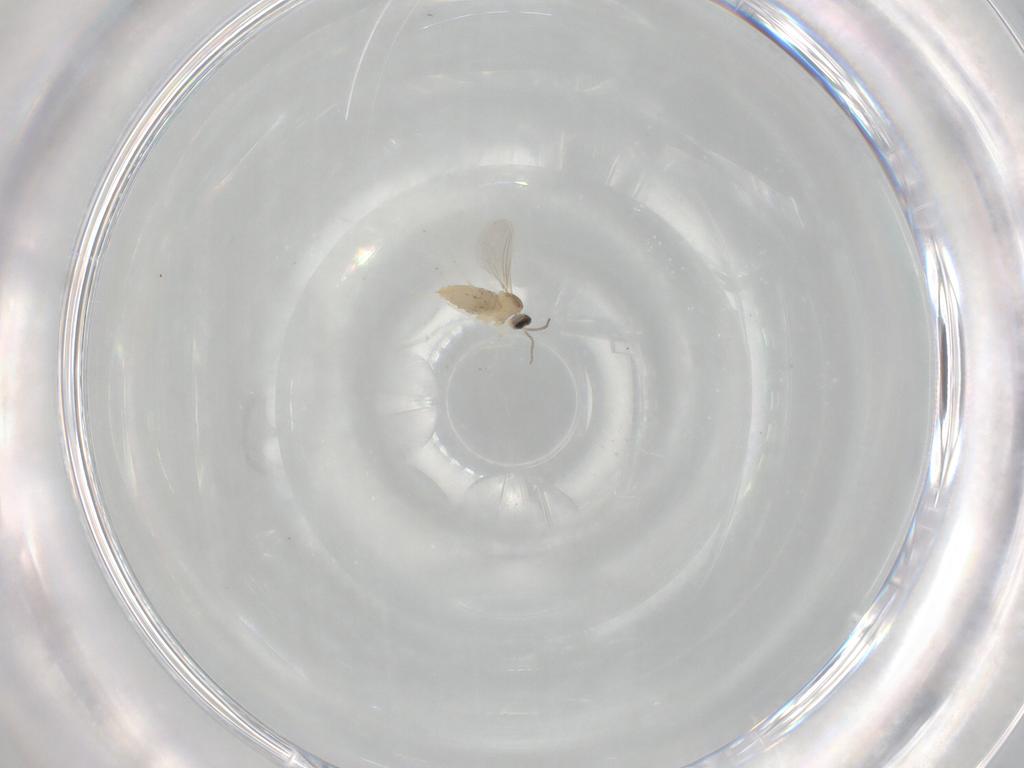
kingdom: Animalia
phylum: Arthropoda
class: Insecta
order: Diptera
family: Cecidomyiidae
